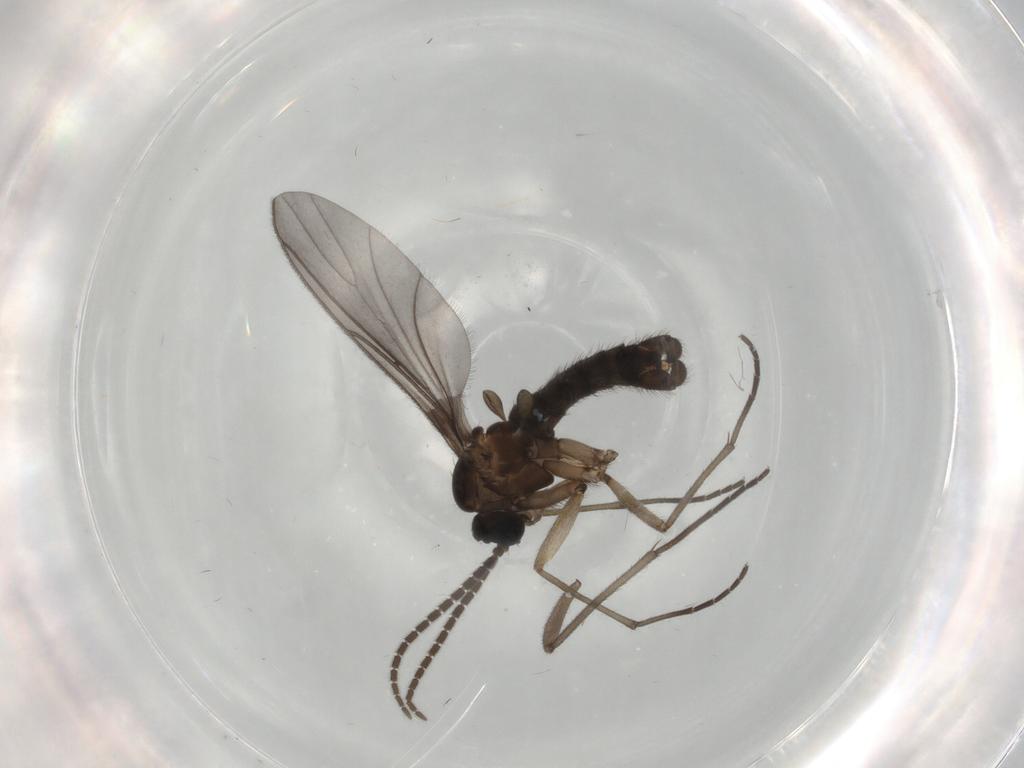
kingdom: Animalia
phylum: Arthropoda
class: Insecta
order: Diptera
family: Sciaridae
